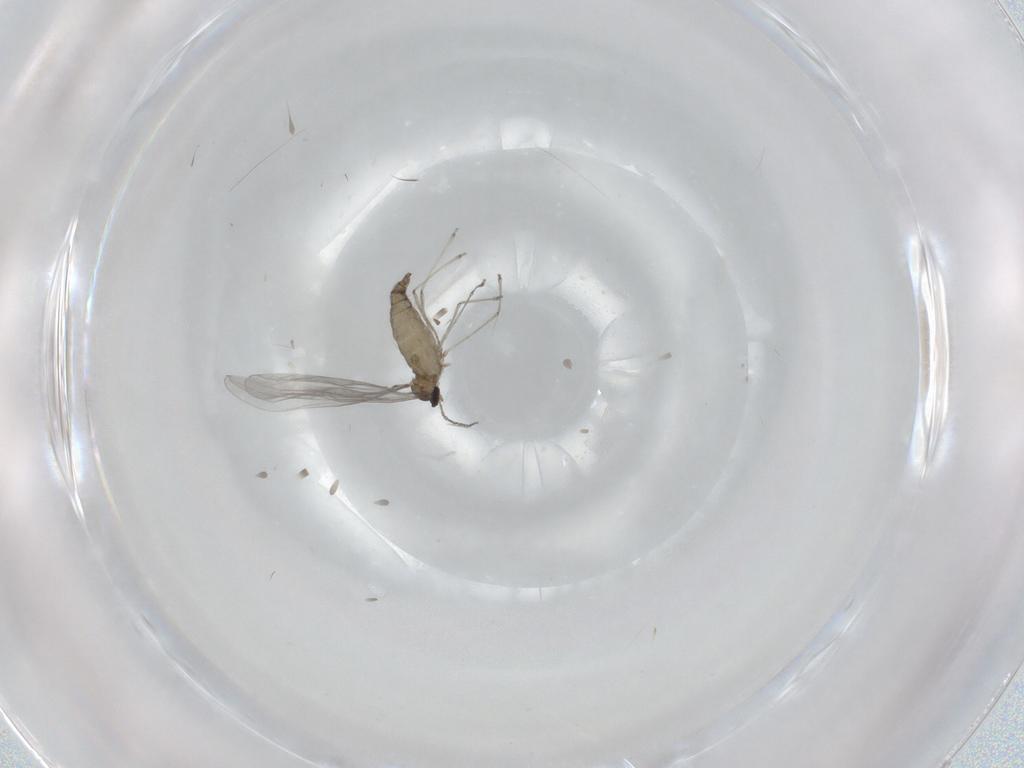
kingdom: Animalia
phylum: Arthropoda
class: Insecta
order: Diptera
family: Cecidomyiidae
